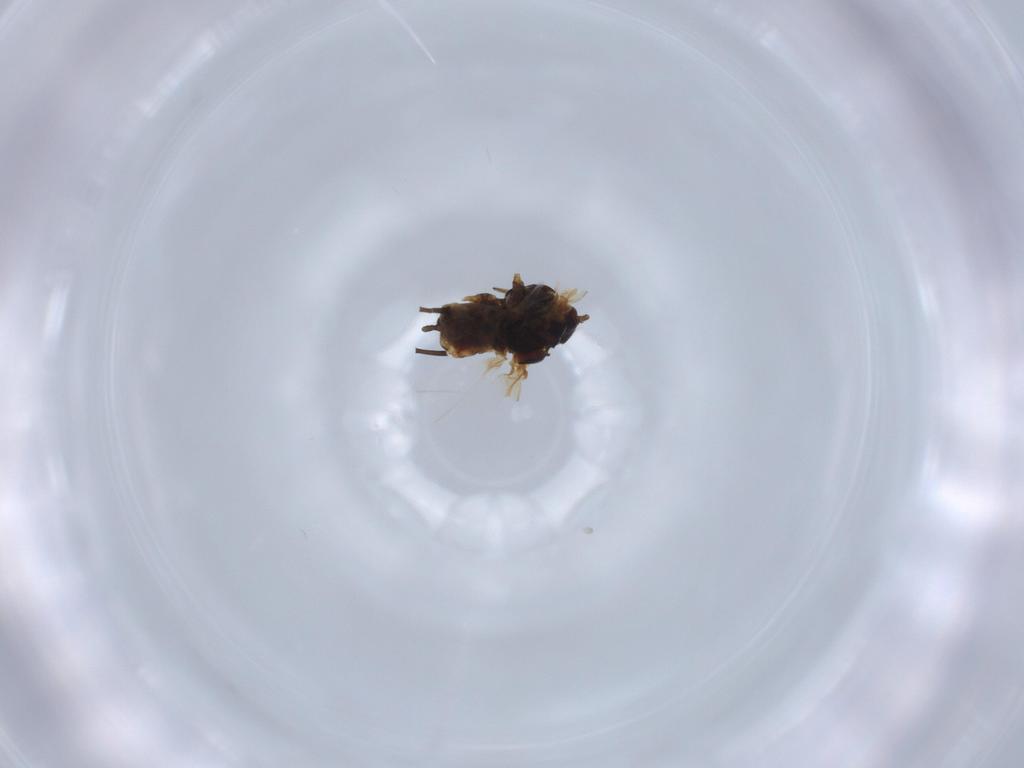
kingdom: Animalia
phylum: Arthropoda
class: Insecta
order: Hemiptera
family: Aphididae
